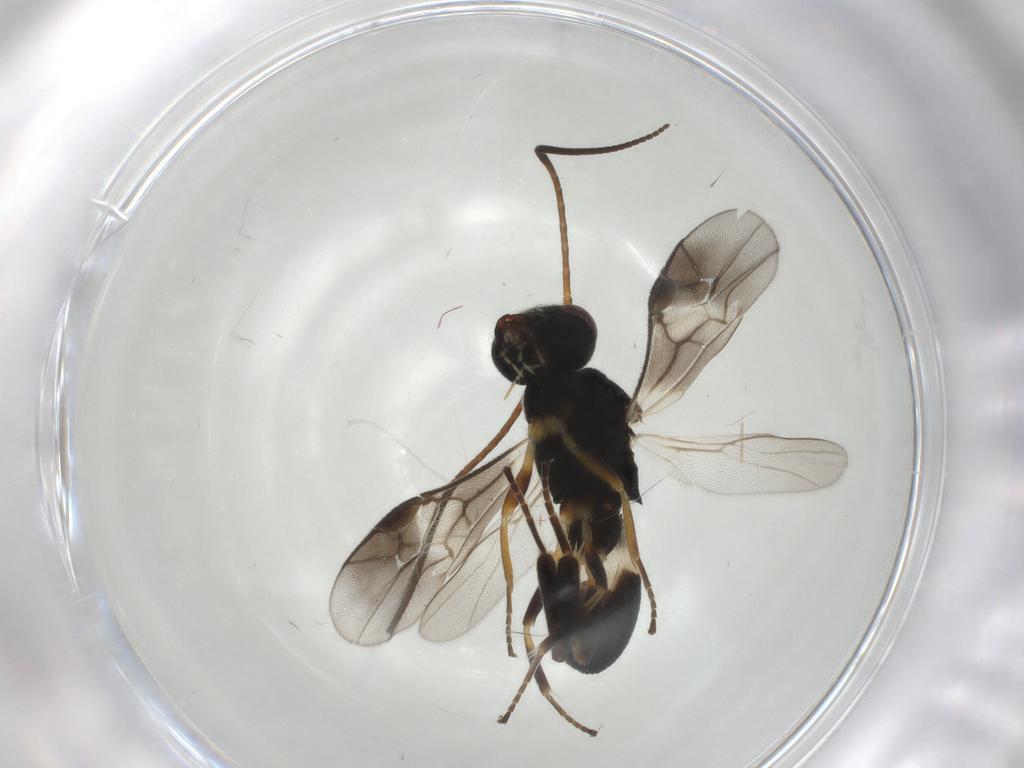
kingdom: Animalia
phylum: Arthropoda
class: Insecta
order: Hymenoptera
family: Braconidae
